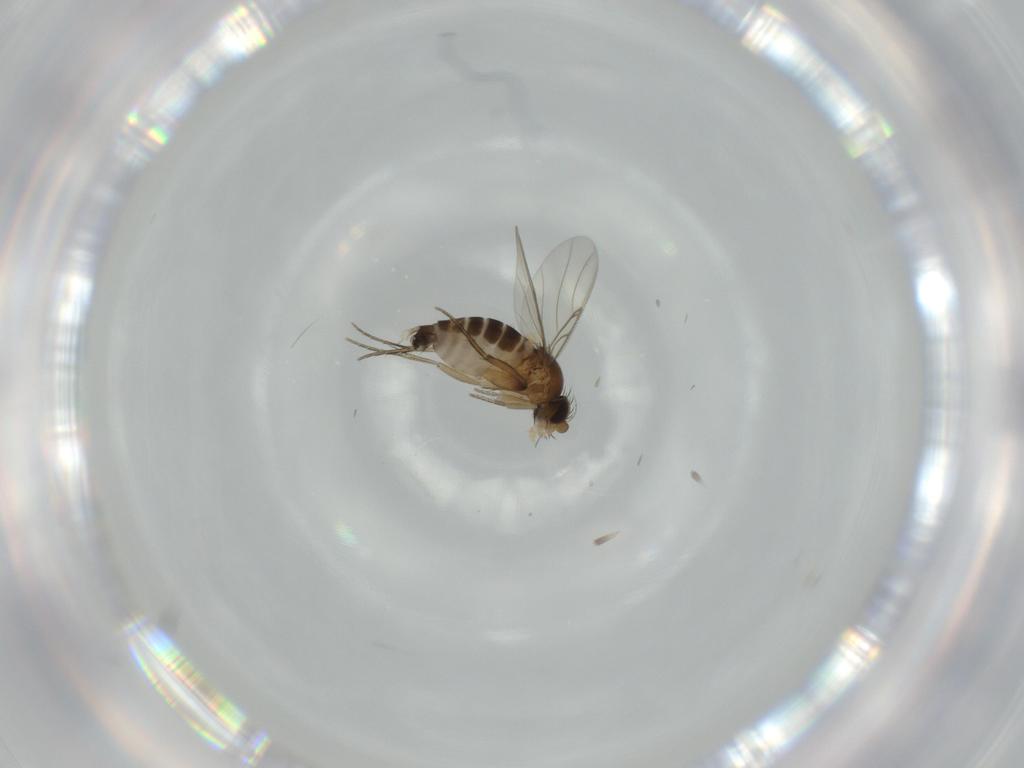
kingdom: Animalia
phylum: Arthropoda
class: Insecta
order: Diptera
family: Phoridae
